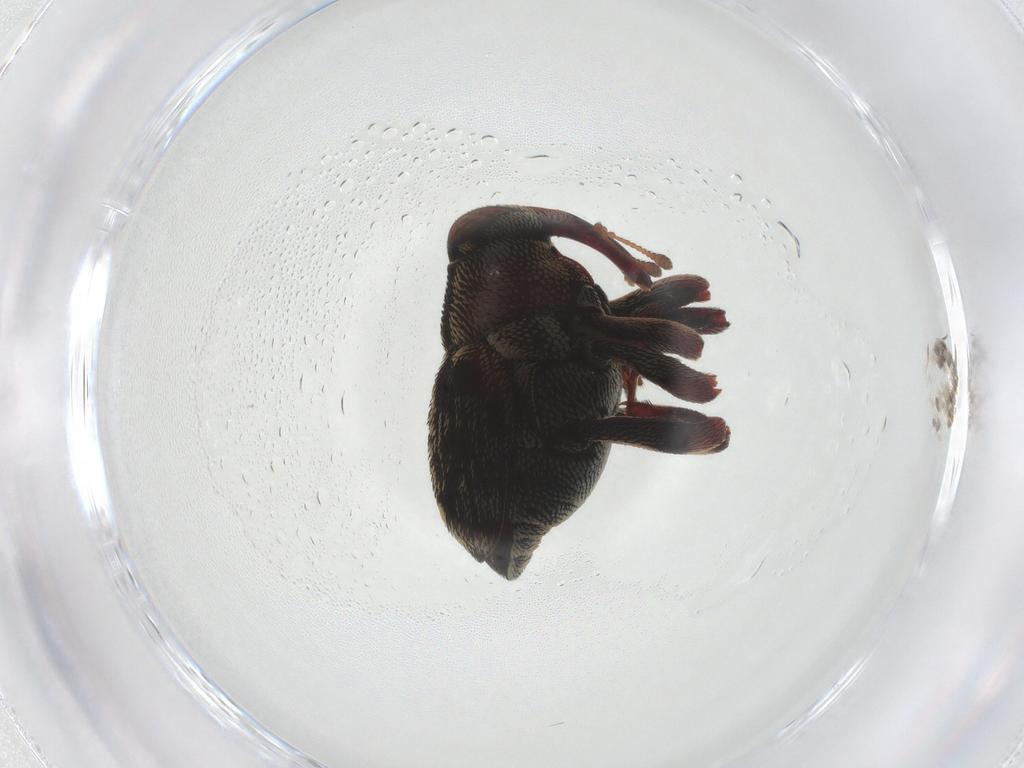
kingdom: Animalia
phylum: Arthropoda
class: Insecta
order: Coleoptera
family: Curculionidae
